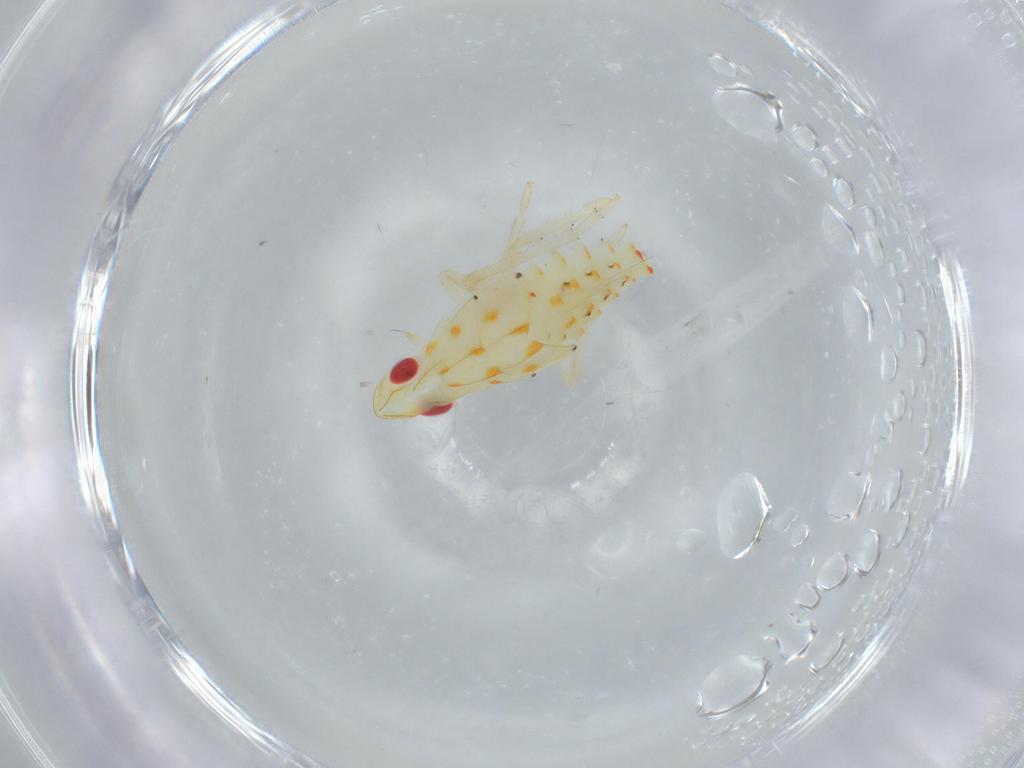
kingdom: Animalia
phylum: Arthropoda
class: Insecta
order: Hemiptera
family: Tropiduchidae
